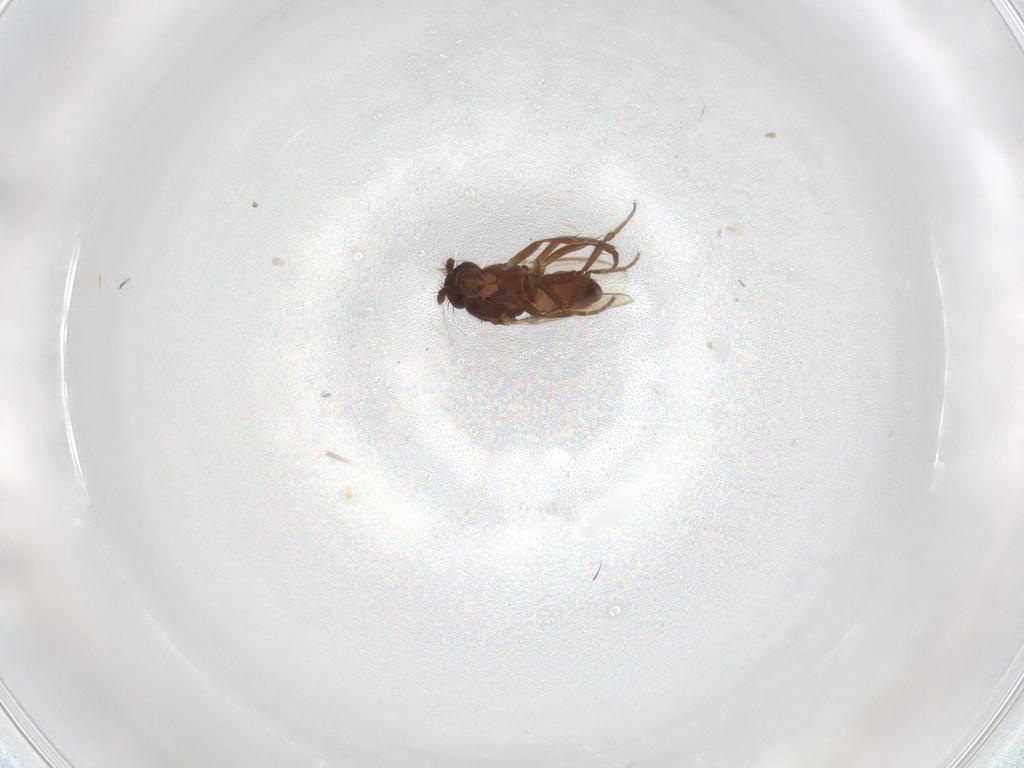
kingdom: Animalia
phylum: Arthropoda
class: Insecta
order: Diptera
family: Sphaeroceridae
